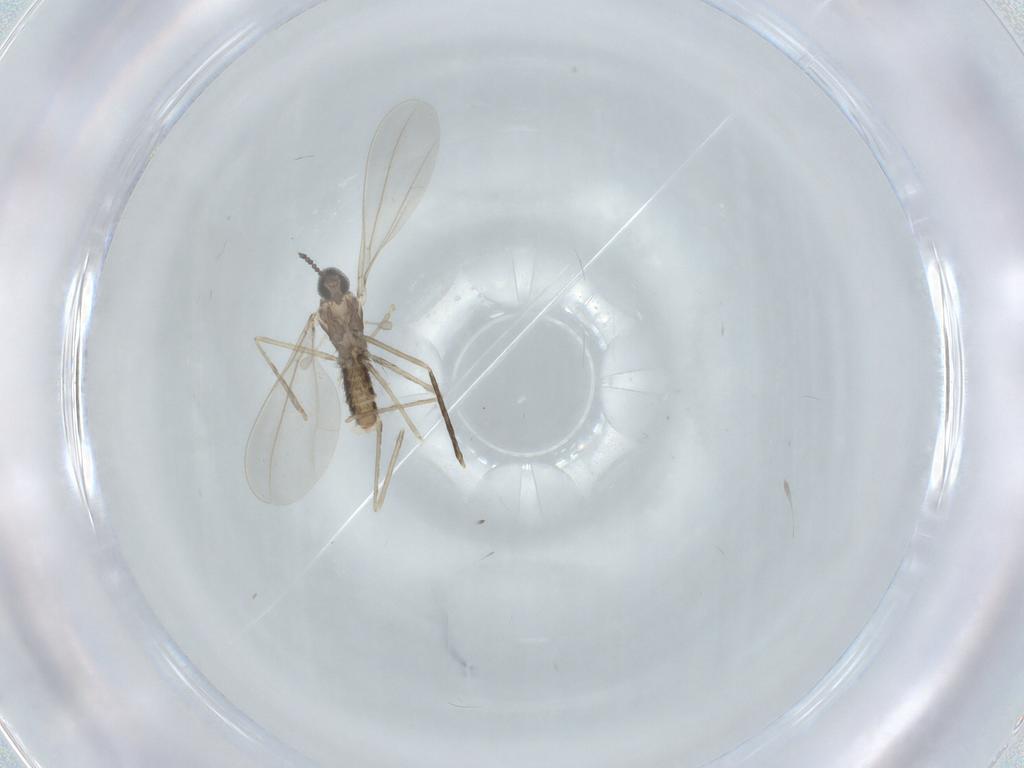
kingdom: Animalia
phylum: Arthropoda
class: Insecta
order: Diptera
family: Cecidomyiidae
